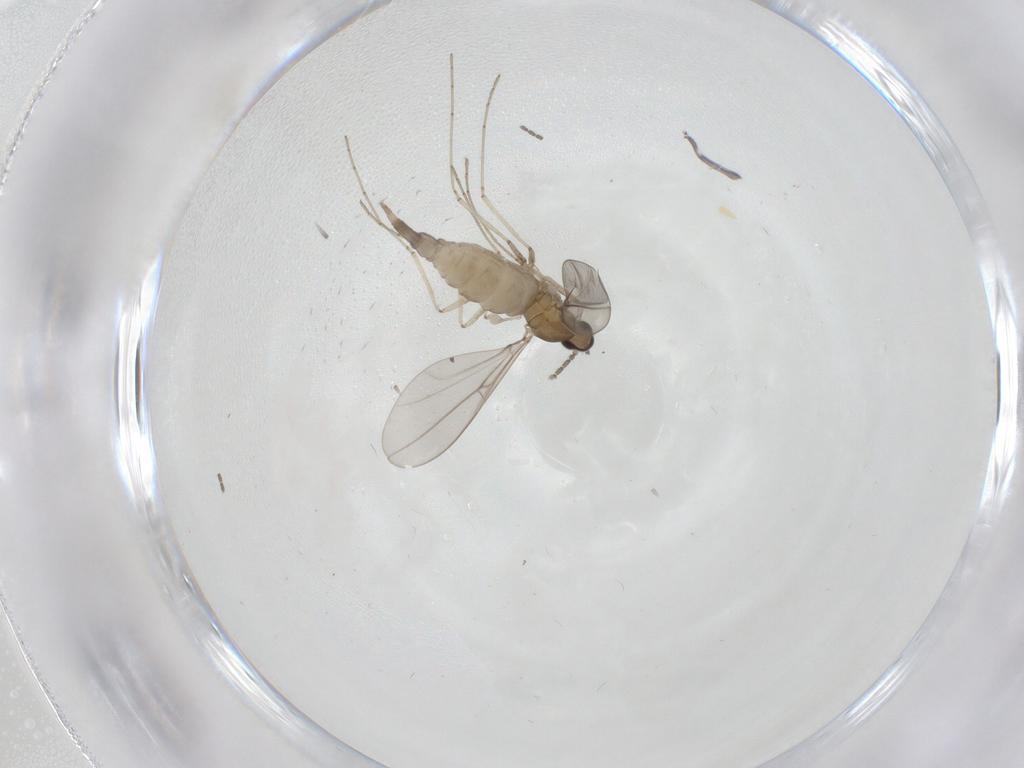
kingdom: Animalia
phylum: Arthropoda
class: Insecta
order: Diptera
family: Cecidomyiidae
